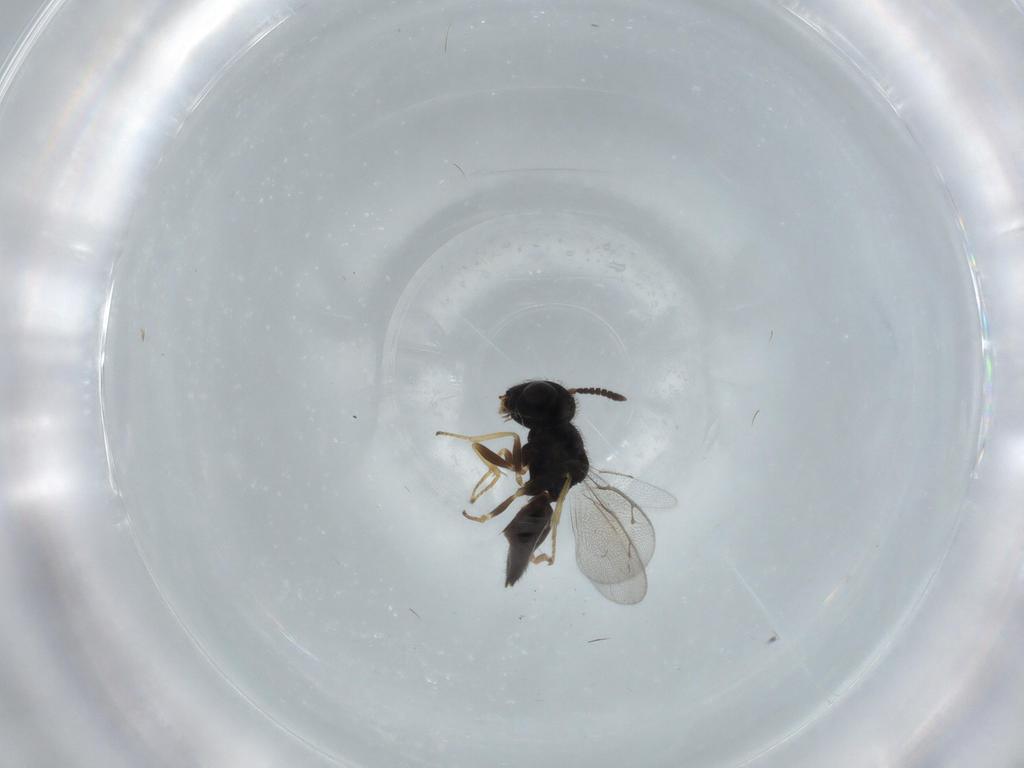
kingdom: Animalia
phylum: Arthropoda
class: Insecta
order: Hymenoptera
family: Pteromalidae
